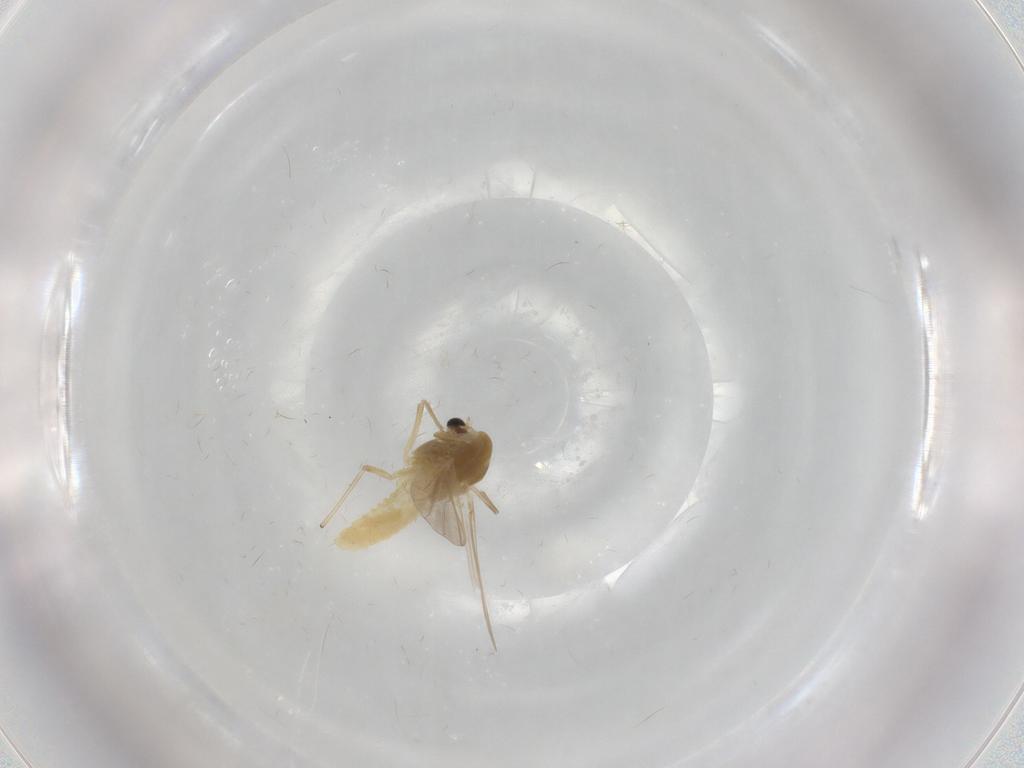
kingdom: Animalia
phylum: Arthropoda
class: Insecta
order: Diptera
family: Chironomidae
